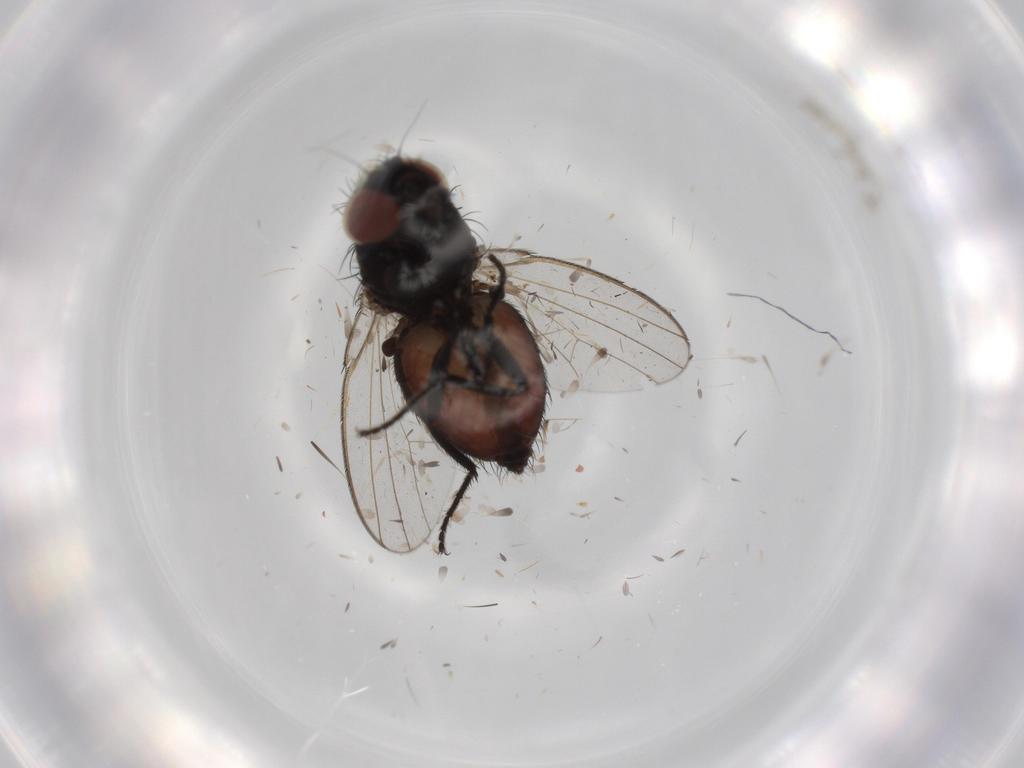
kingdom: Animalia
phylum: Arthropoda
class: Insecta
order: Diptera
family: Milichiidae
